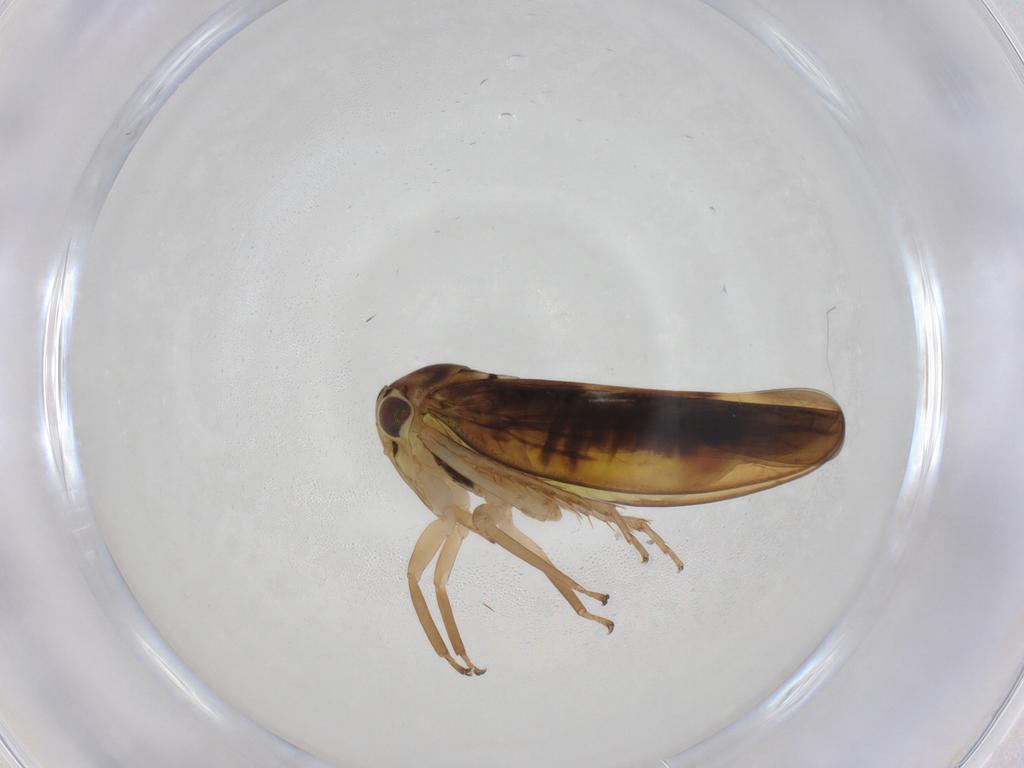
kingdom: Animalia
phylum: Arthropoda
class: Insecta
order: Hemiptera
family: Cicadellidae
